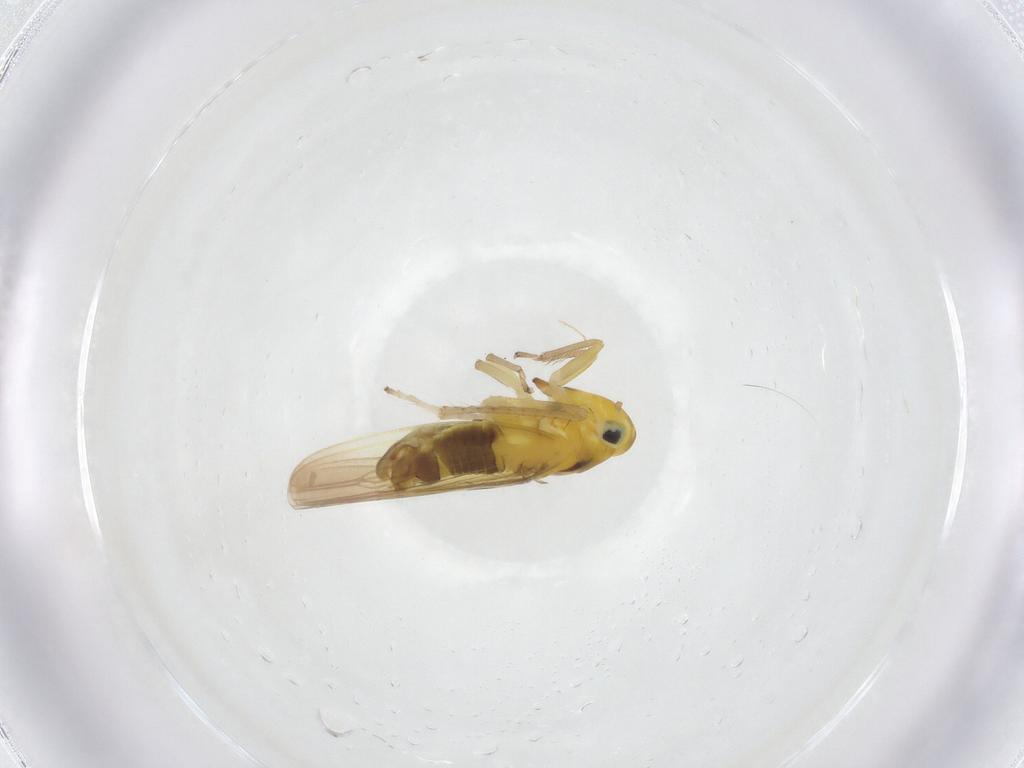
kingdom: Animalia
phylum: Arthropoda
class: Insecta
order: Hemiptera
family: Cicadellidae
